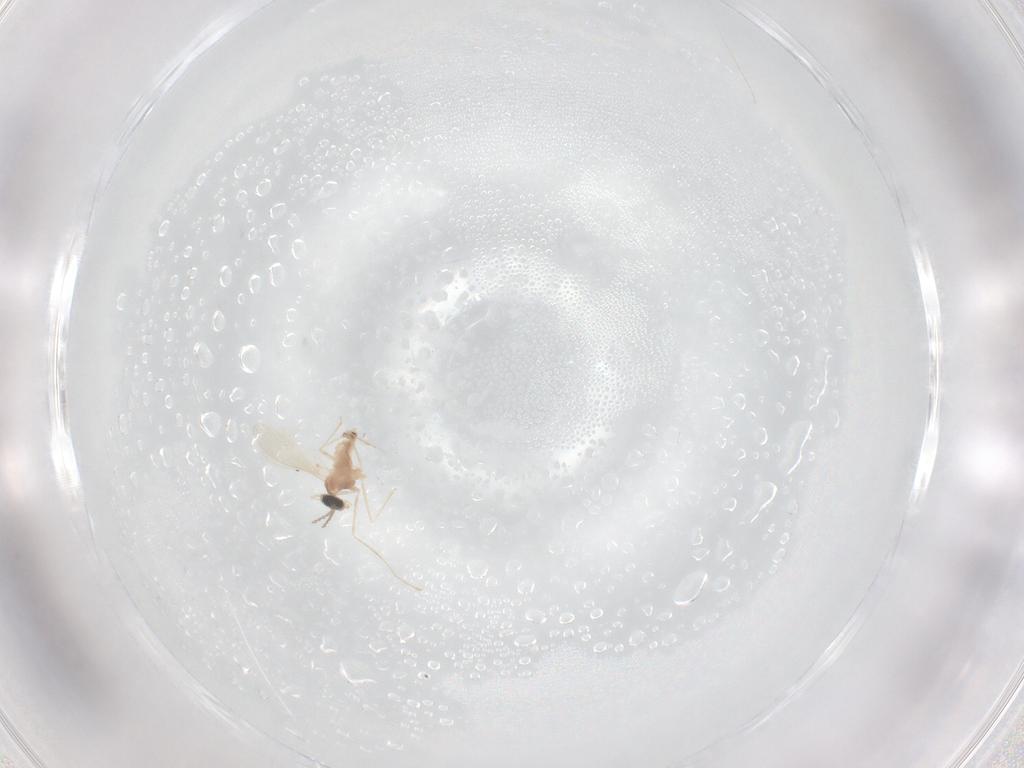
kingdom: Animalia
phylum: Arthropoda
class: Insecta
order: Diptera
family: Cecidomyiidae
